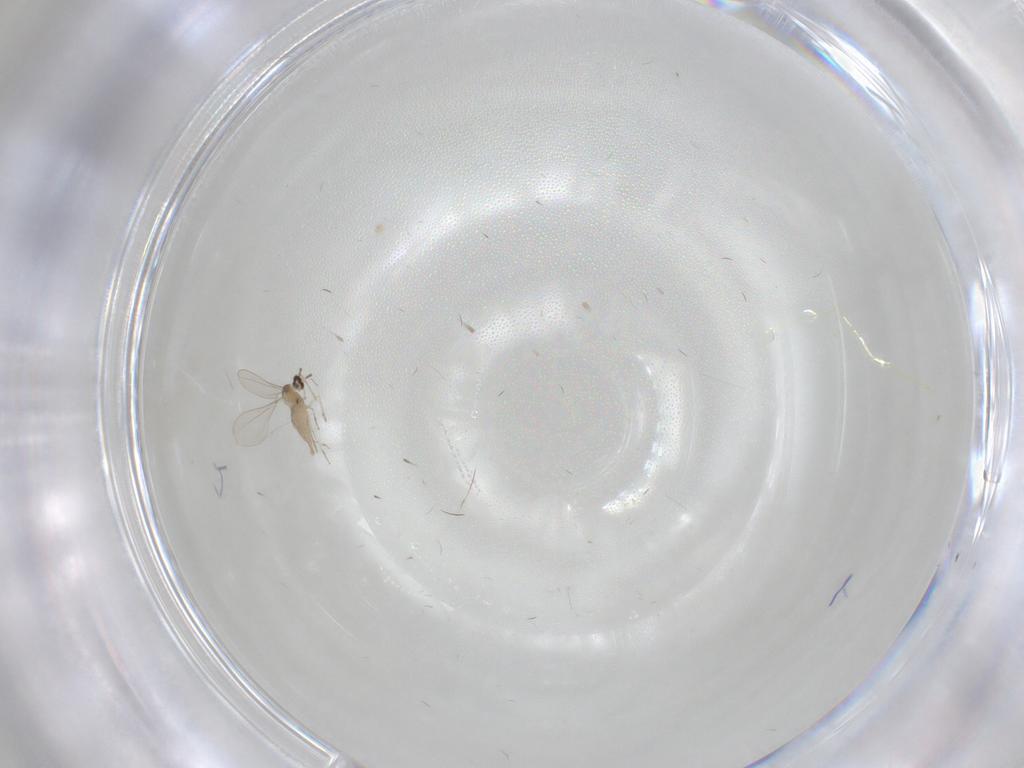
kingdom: Animalia
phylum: Arthropoda
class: Insecta
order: Diptera
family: Cecidomyiidae
